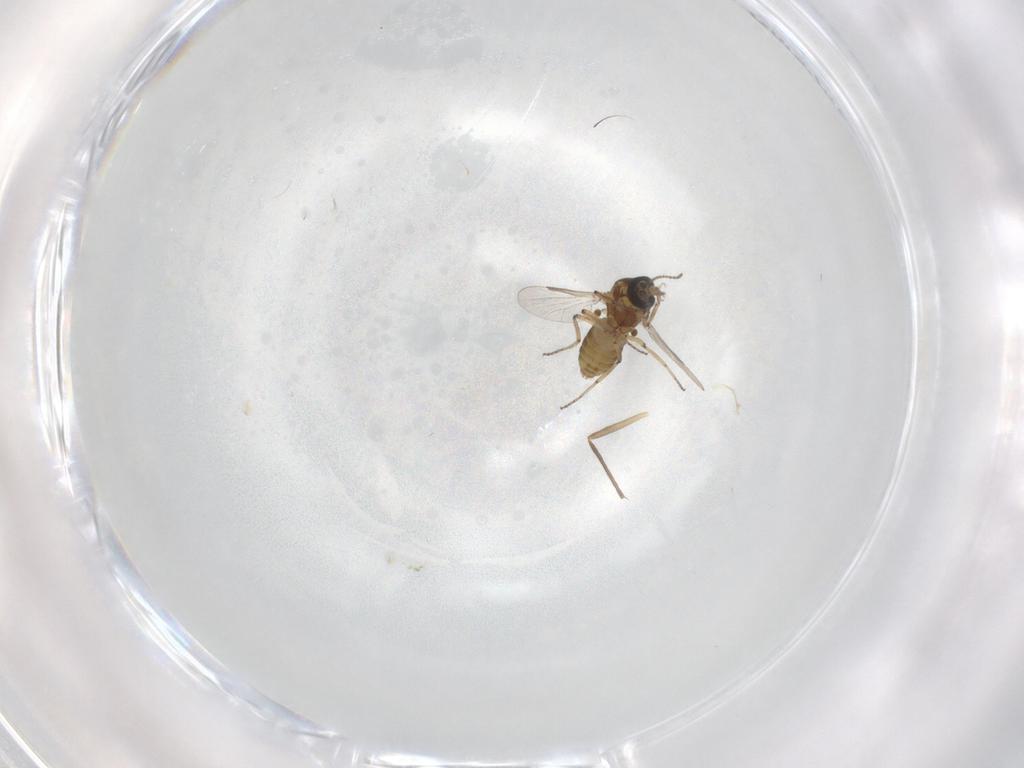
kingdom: Animalia
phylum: Arthropoda
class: Insecta
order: Diptera
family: Ceratopogonidae
